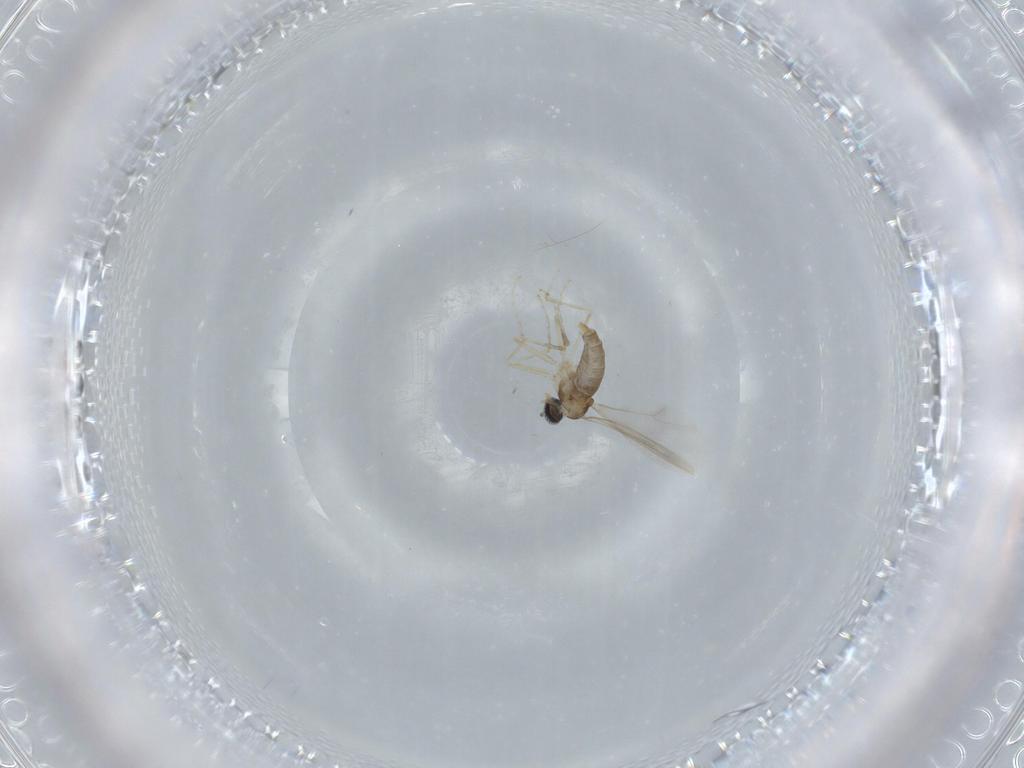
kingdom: Animalia
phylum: Arthropoda
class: Insecta
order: Diptera
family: Cecidomyiidae
